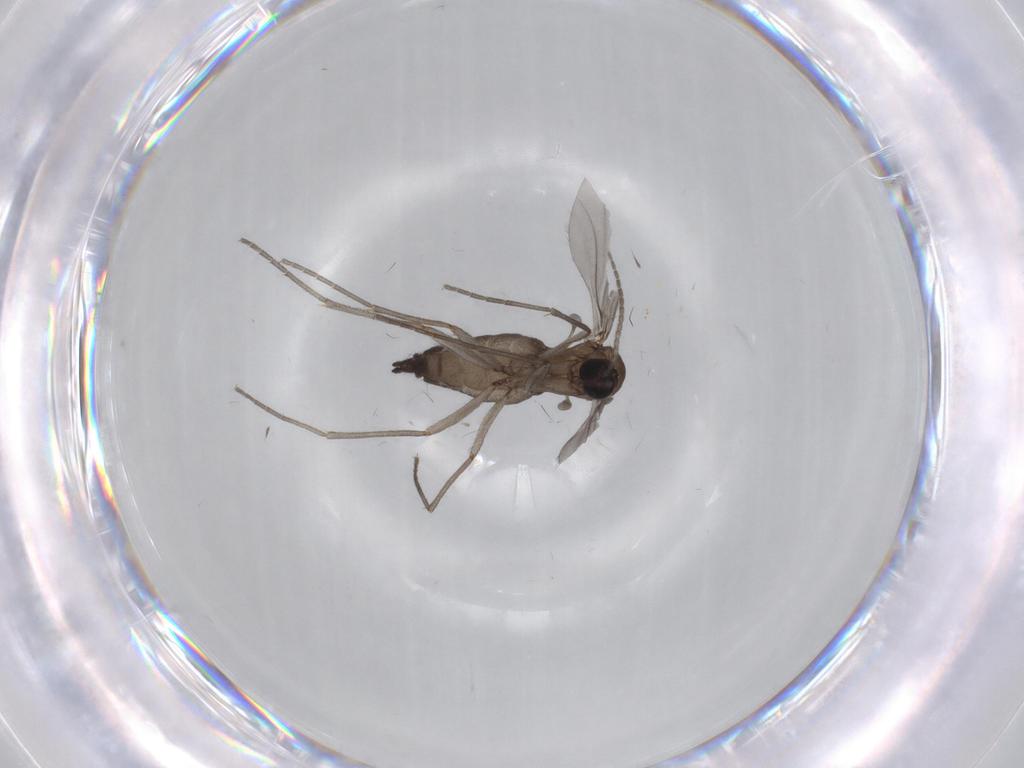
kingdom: Animalia
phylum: Arthropoda
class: Insecta
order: Diptera
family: Sciaridae
